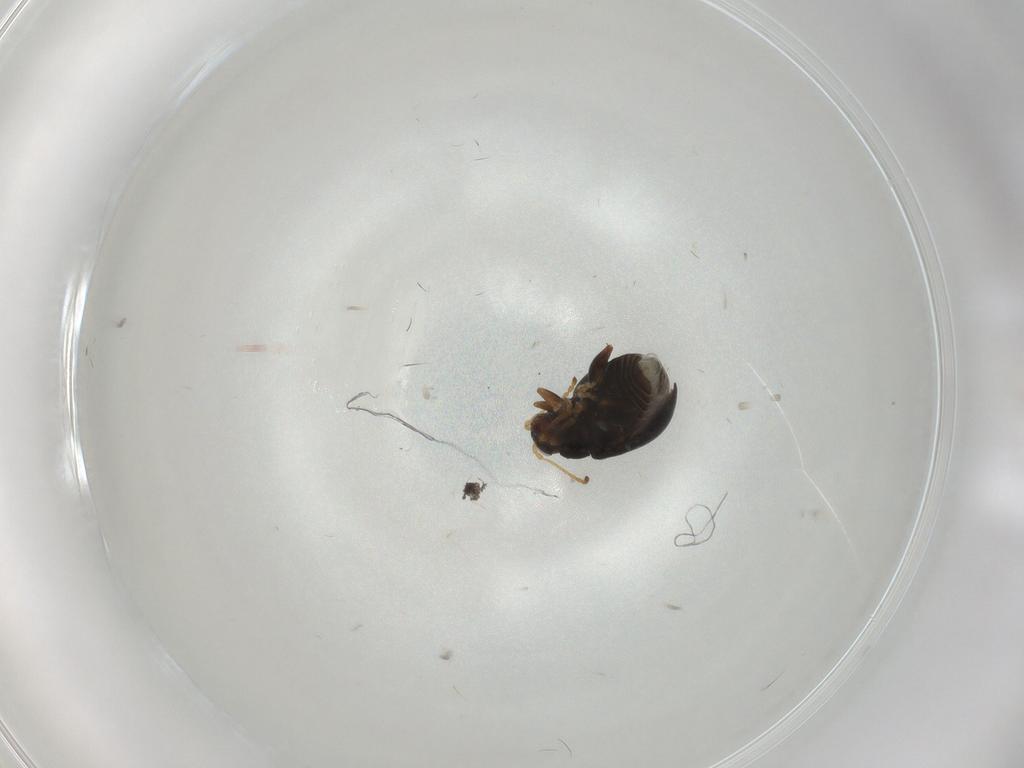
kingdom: Animalia
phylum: Arthropoda
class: Insecta
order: Coleoptera
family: Chrysomelidae
